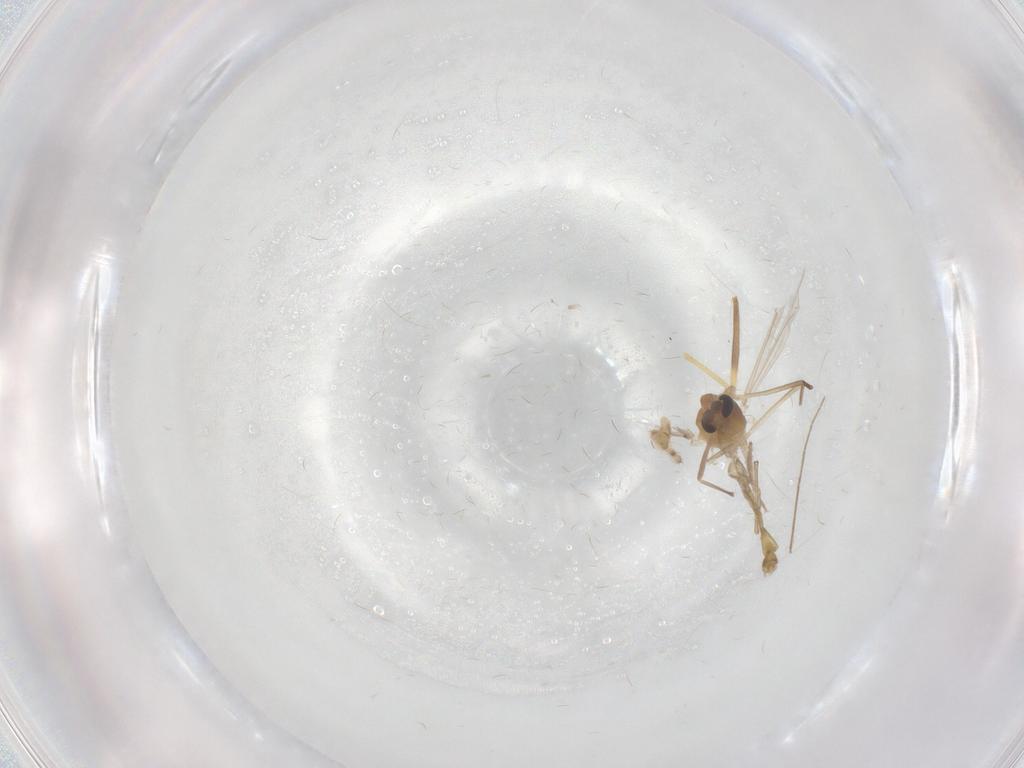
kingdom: Animalia
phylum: Arthropoda
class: Insecta
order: Diptera
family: Chironomidae
